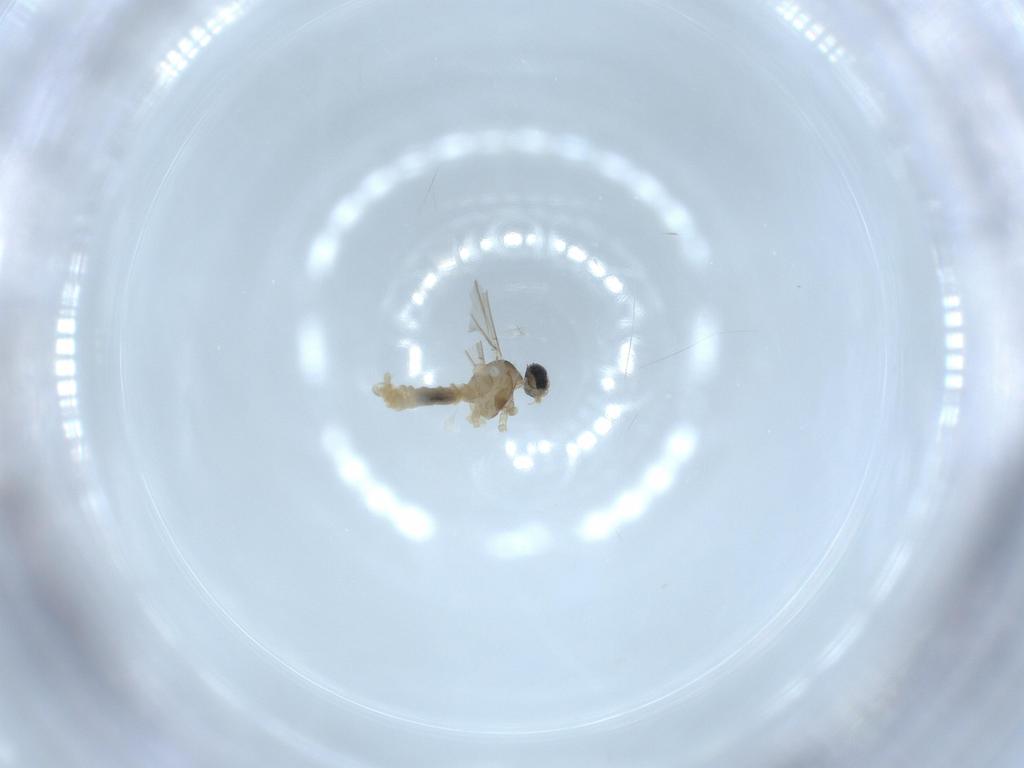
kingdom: Animalia
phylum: Arthropoda
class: Insecta
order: Diptera
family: Cecidomyiidae
